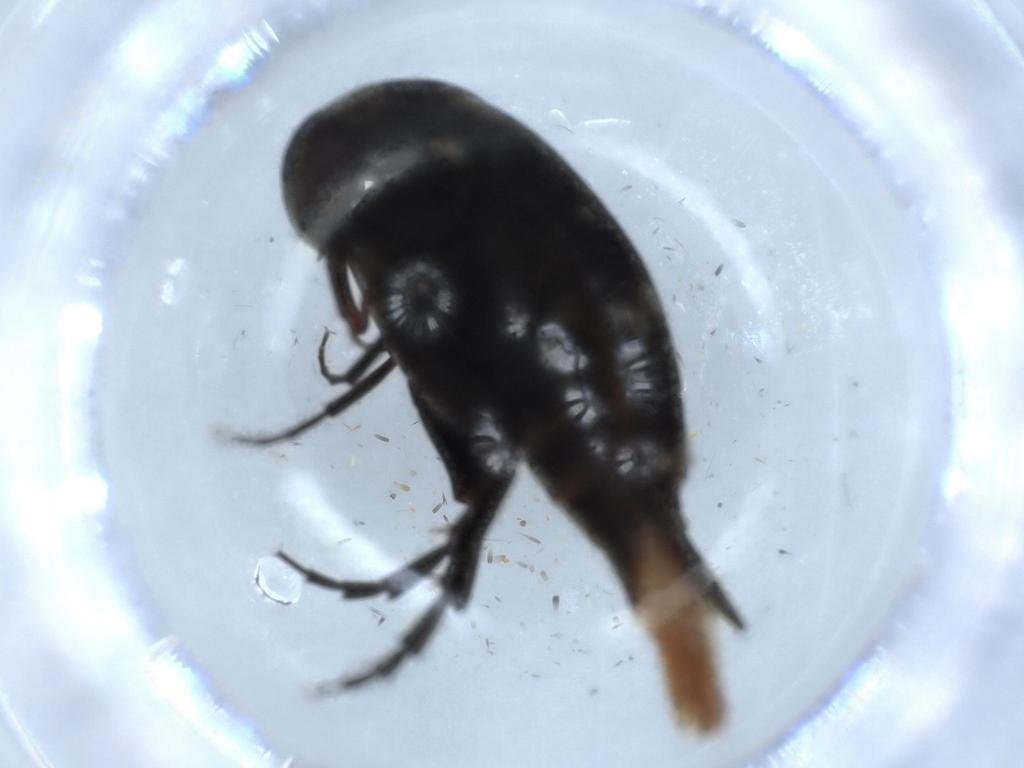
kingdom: Animalia
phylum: Arthropoda
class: Insecta
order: Coleoptera
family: Chrysomelidae
